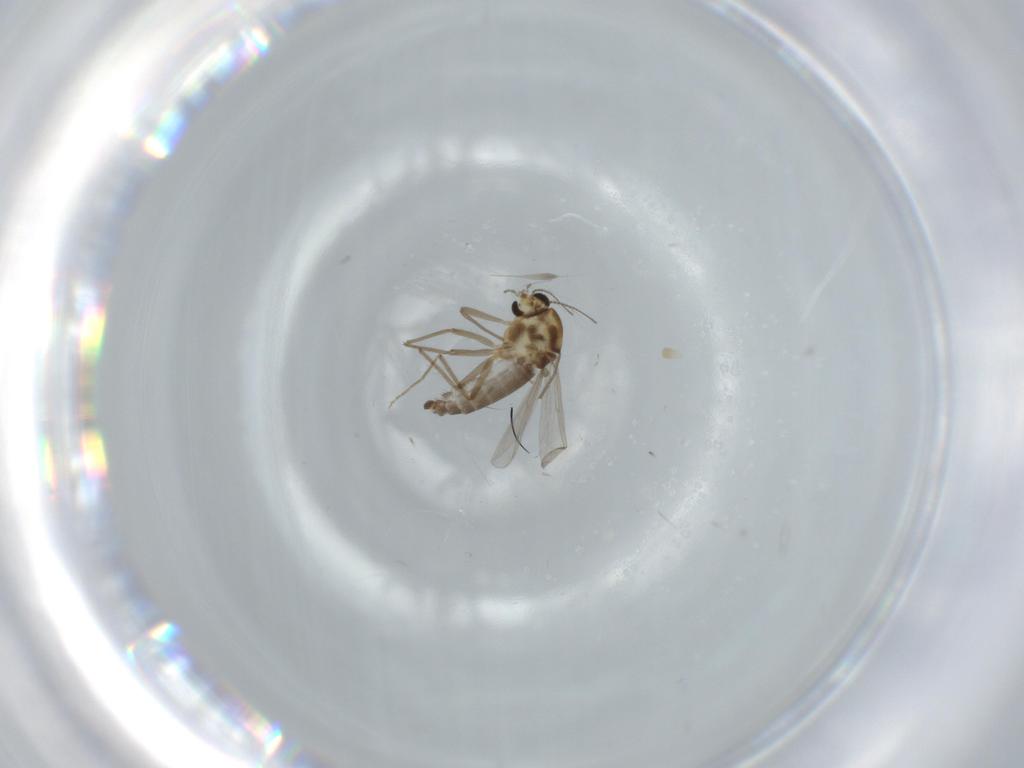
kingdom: Animalia
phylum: Arthropoda
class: Insecta
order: Diptera
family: Chironomidae
